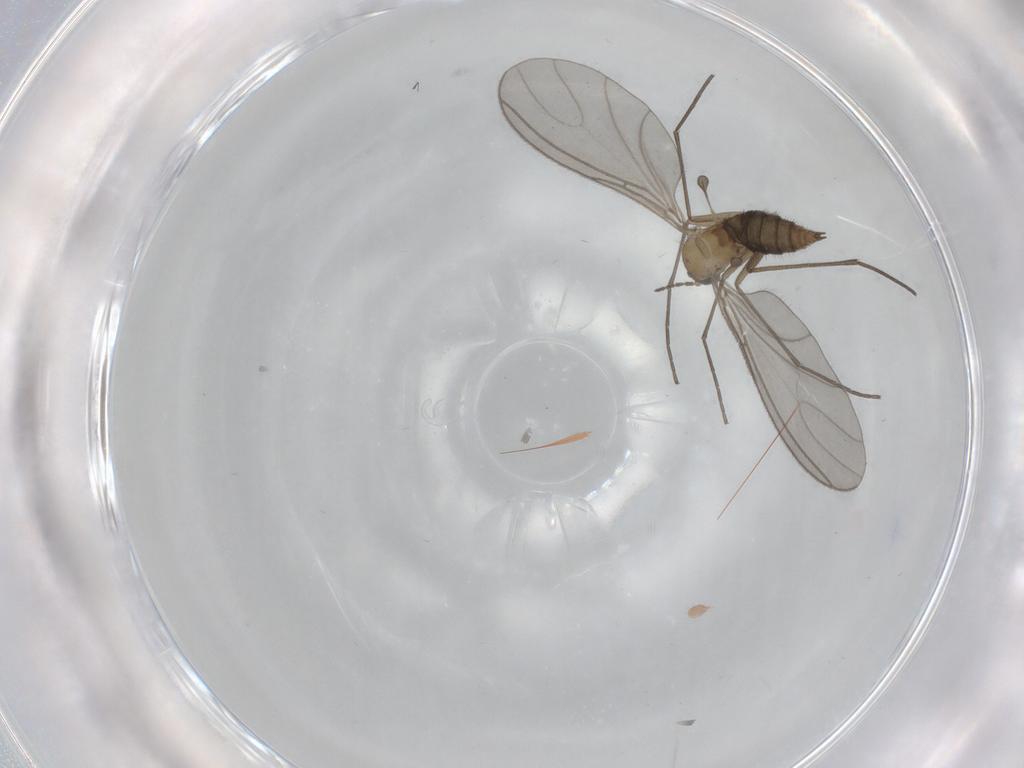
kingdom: Animalia
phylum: Arthropoda
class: Insecta
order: Diptera
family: Sciaridae
